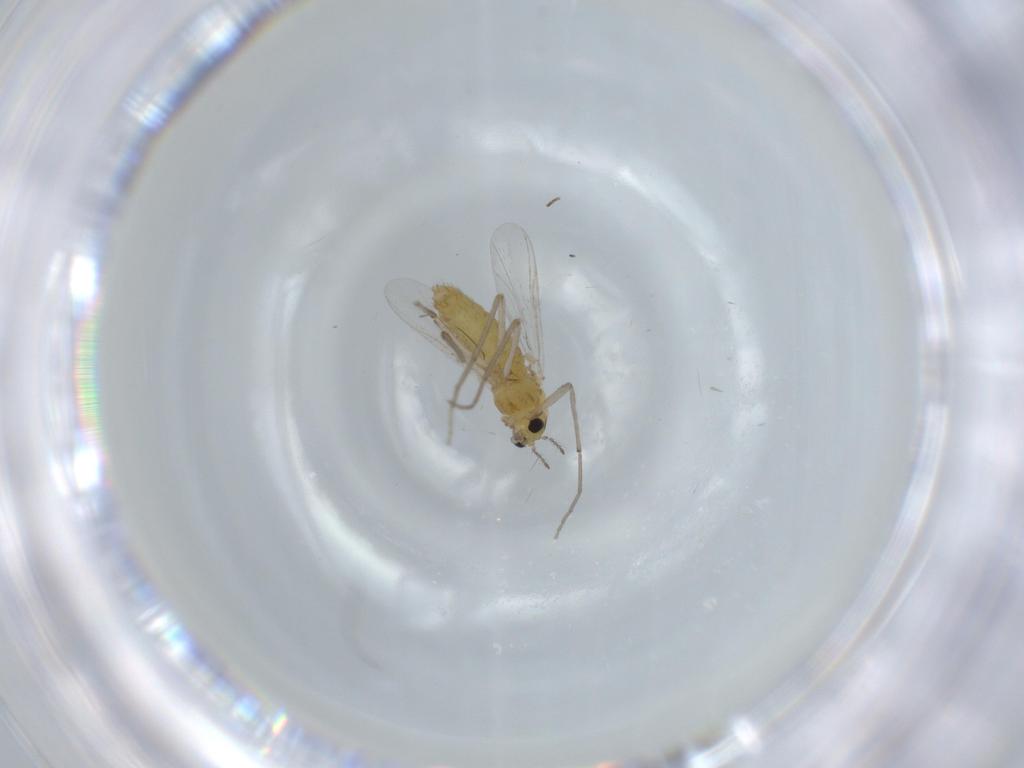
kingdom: Animalia
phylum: Arthropoda
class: Insecta
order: Diptera
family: Chironomidae
